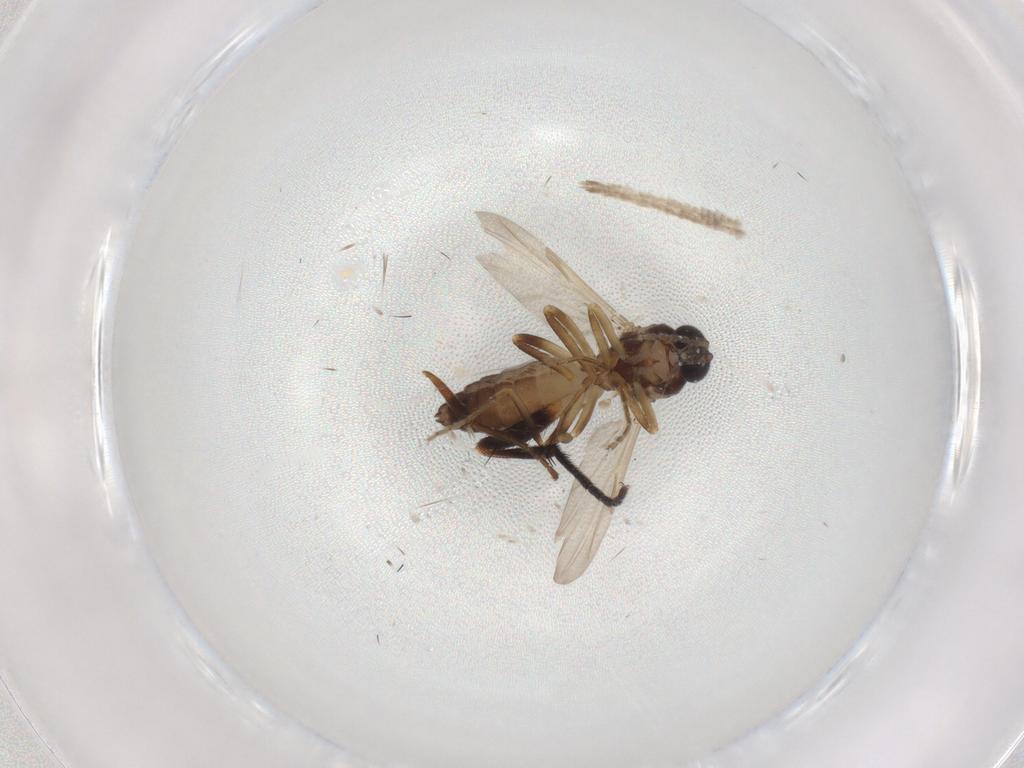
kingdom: Animalia
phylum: Arthropoda
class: Insecta
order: Diptera
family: Ceratopogonidae
